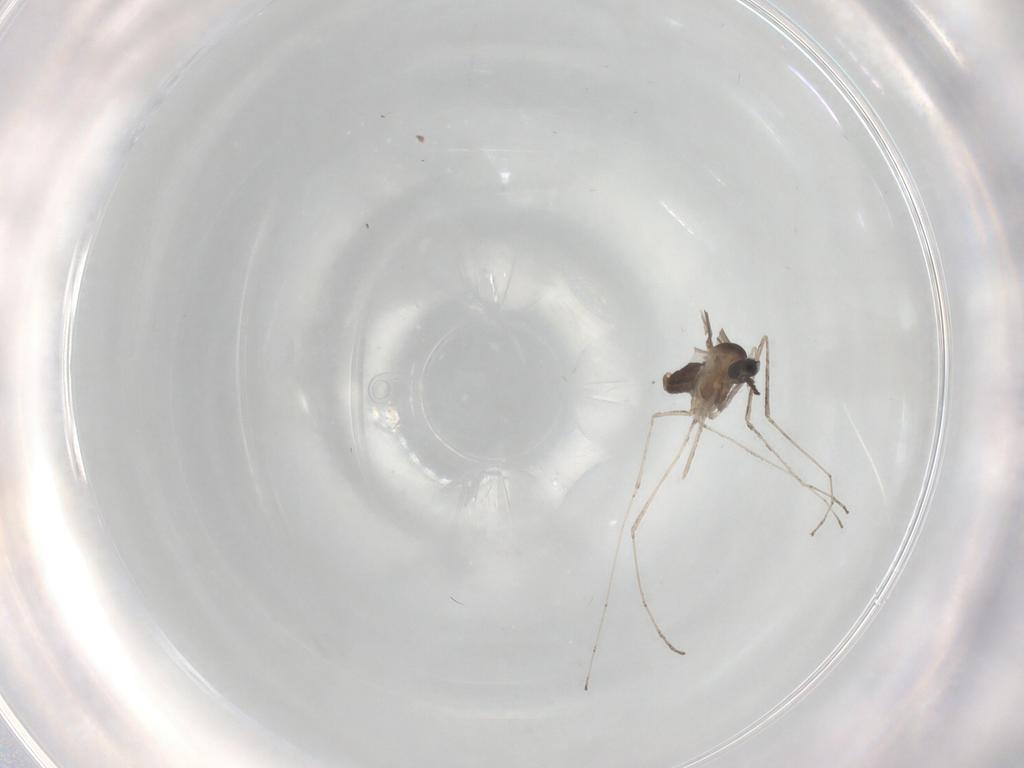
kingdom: Animalia
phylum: Arthropoda
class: Insecta
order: Diptera
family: Cecidomyiidae
